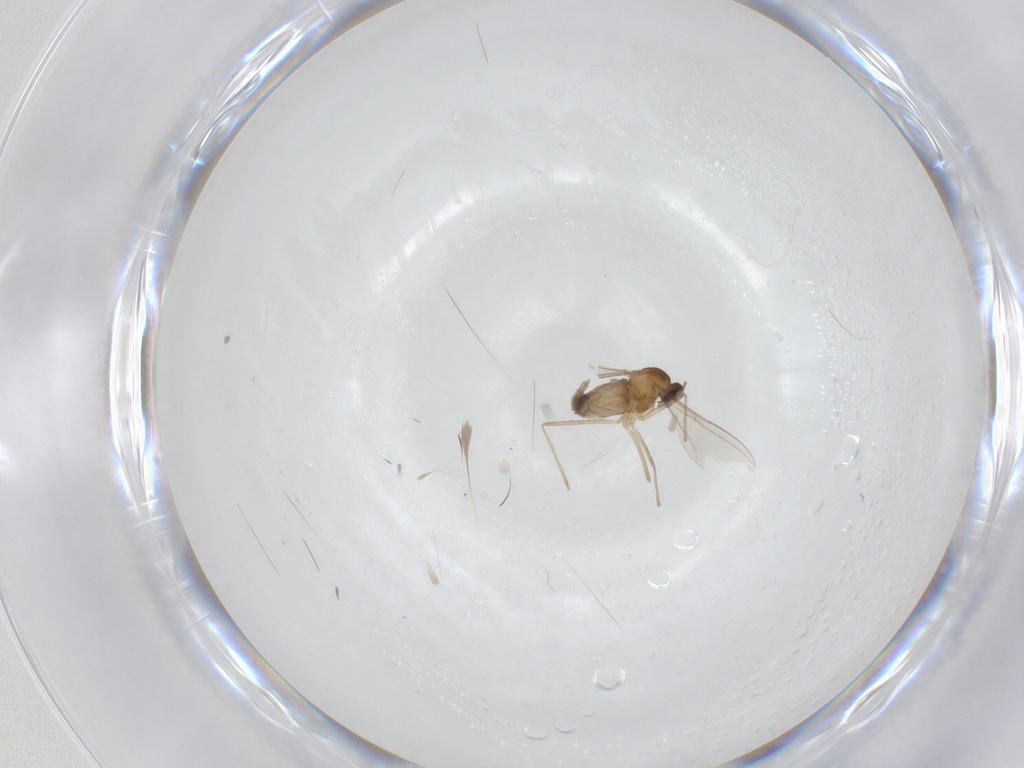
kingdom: Animalia
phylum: Arthropoda
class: Insecta
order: Diptera
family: Cecidomyiidae
